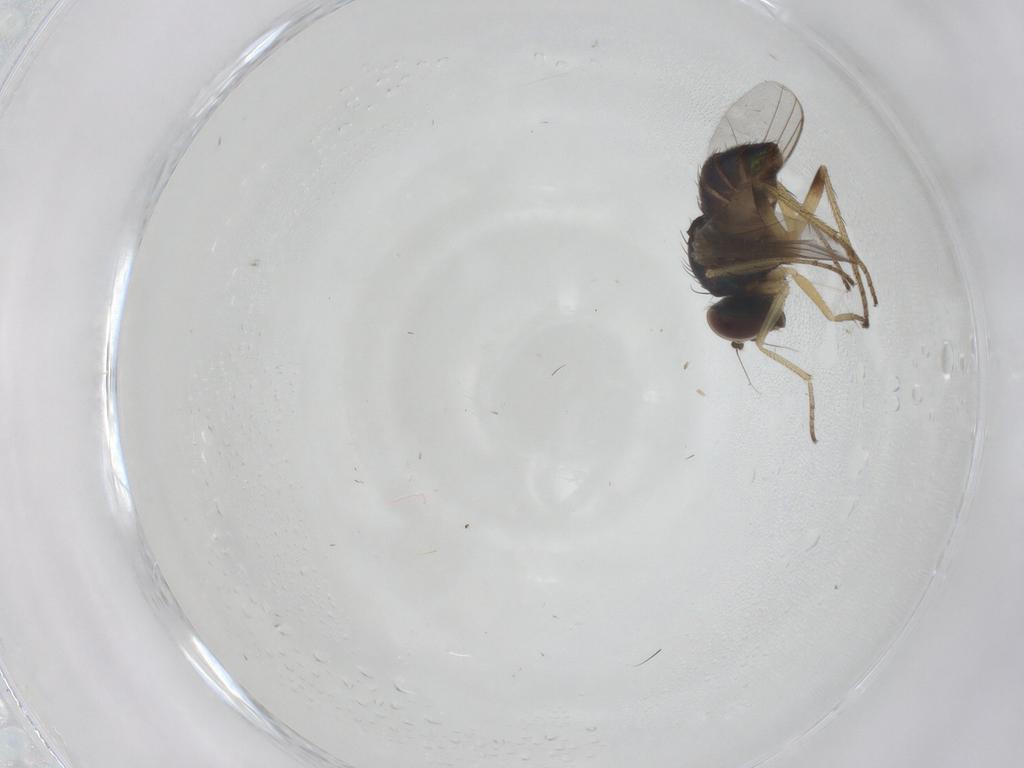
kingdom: Animalia
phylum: Arthropoda
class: Insecta
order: Diptera
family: Dolichopodidae
